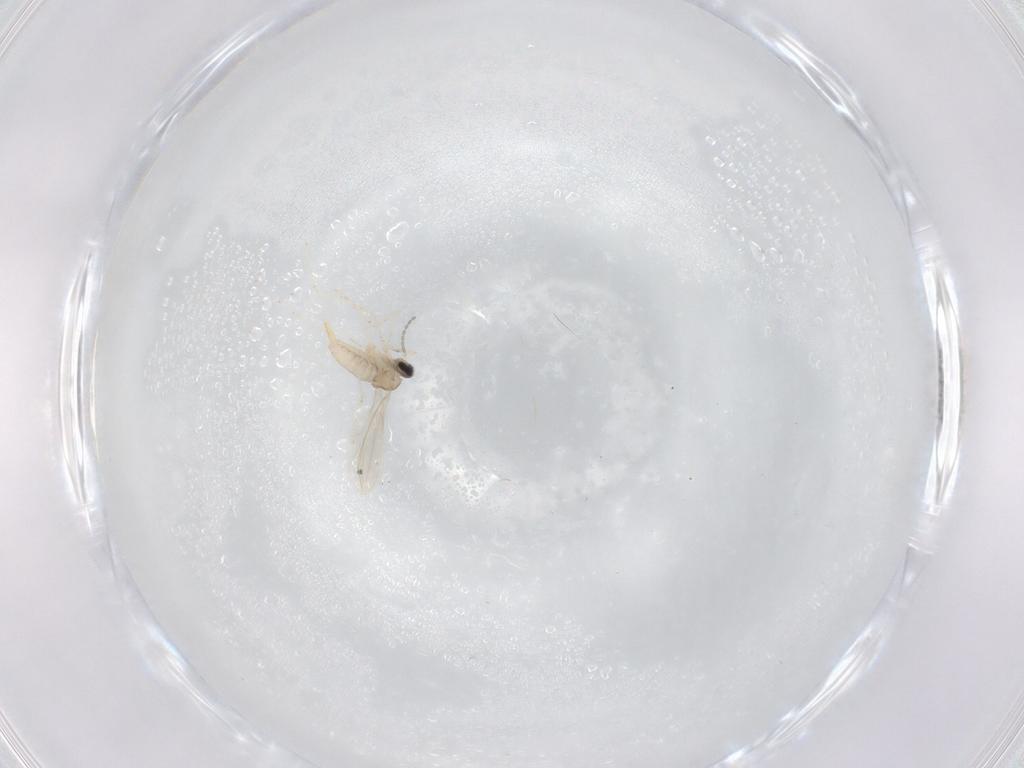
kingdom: Animalia
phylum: Arthropoda
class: Insecta
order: Diptera
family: Cecidomyiidae
